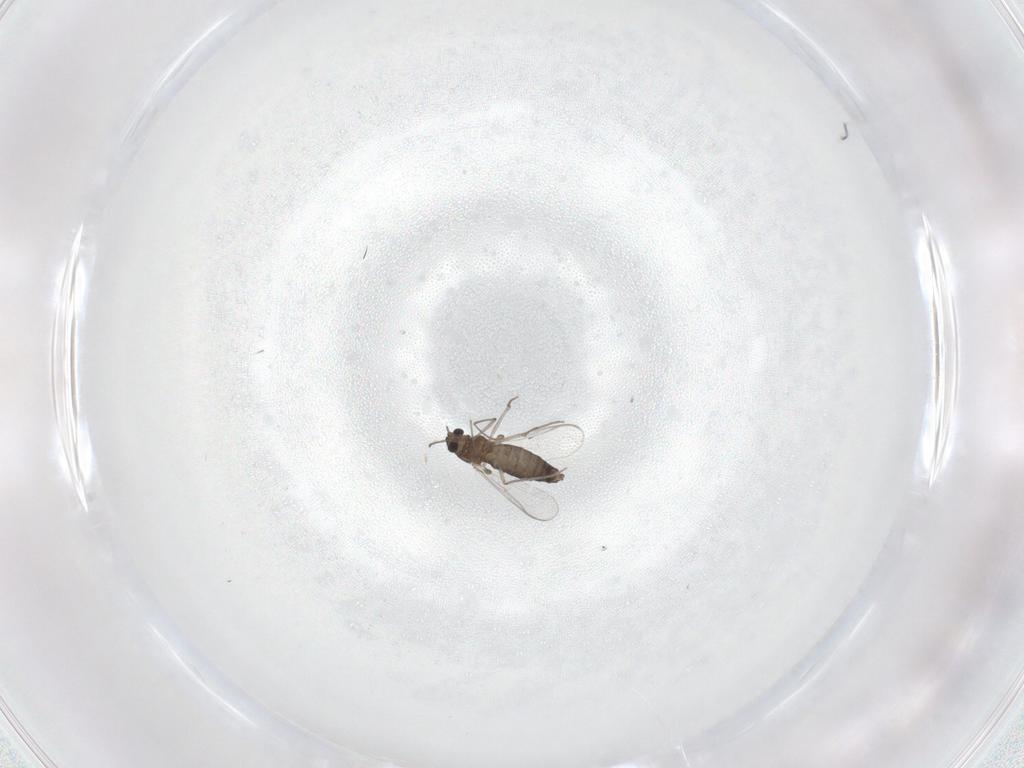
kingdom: Animalia
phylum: Arthropoda
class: Insecta
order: Diptera
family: Chironomidae
